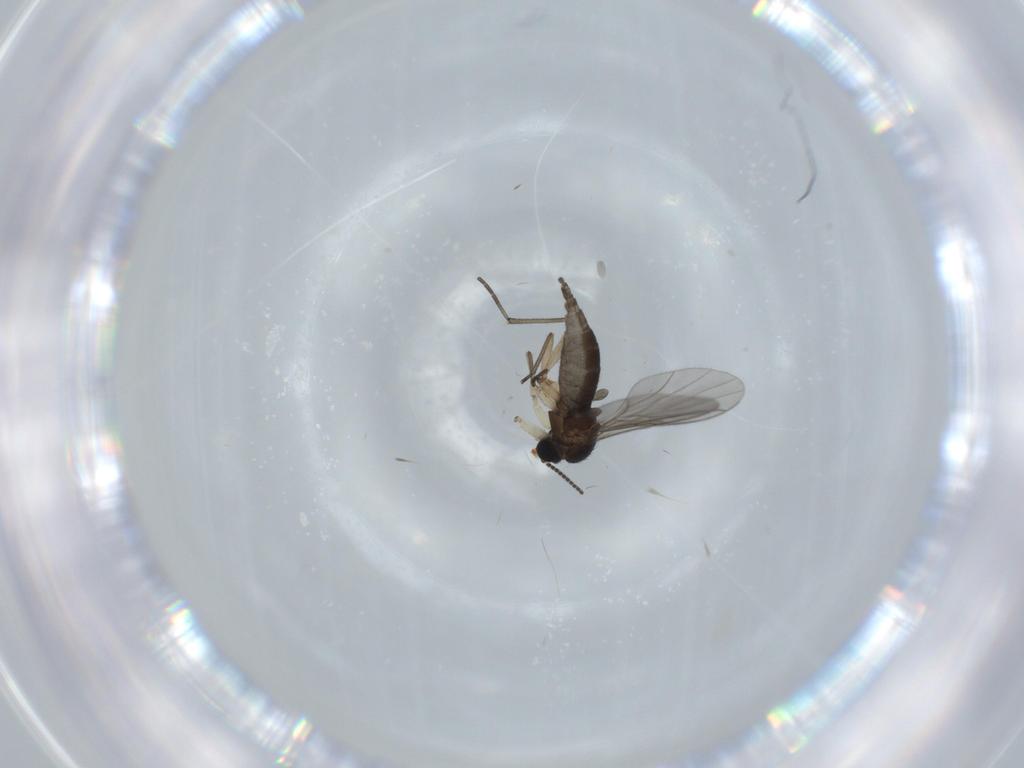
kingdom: Animalia
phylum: Arthropoda
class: Insecta
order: Diptera
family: Sciaridae
